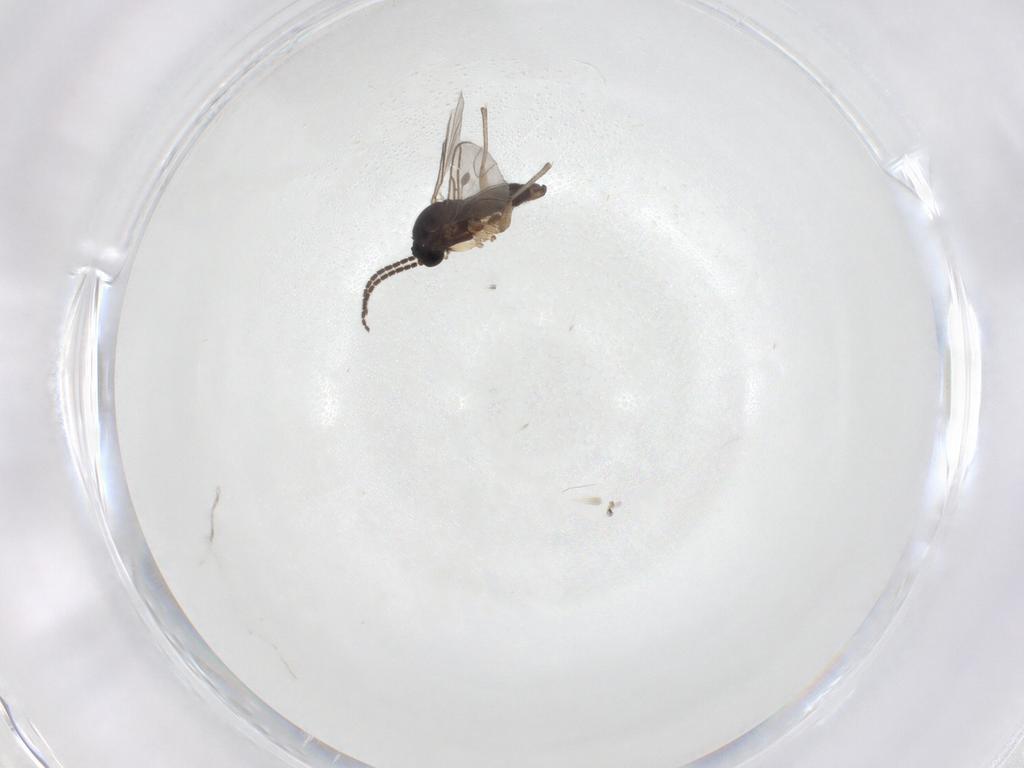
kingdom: Animalia
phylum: Arthropoda
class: Insecta
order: Diptera
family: Sciaridae
